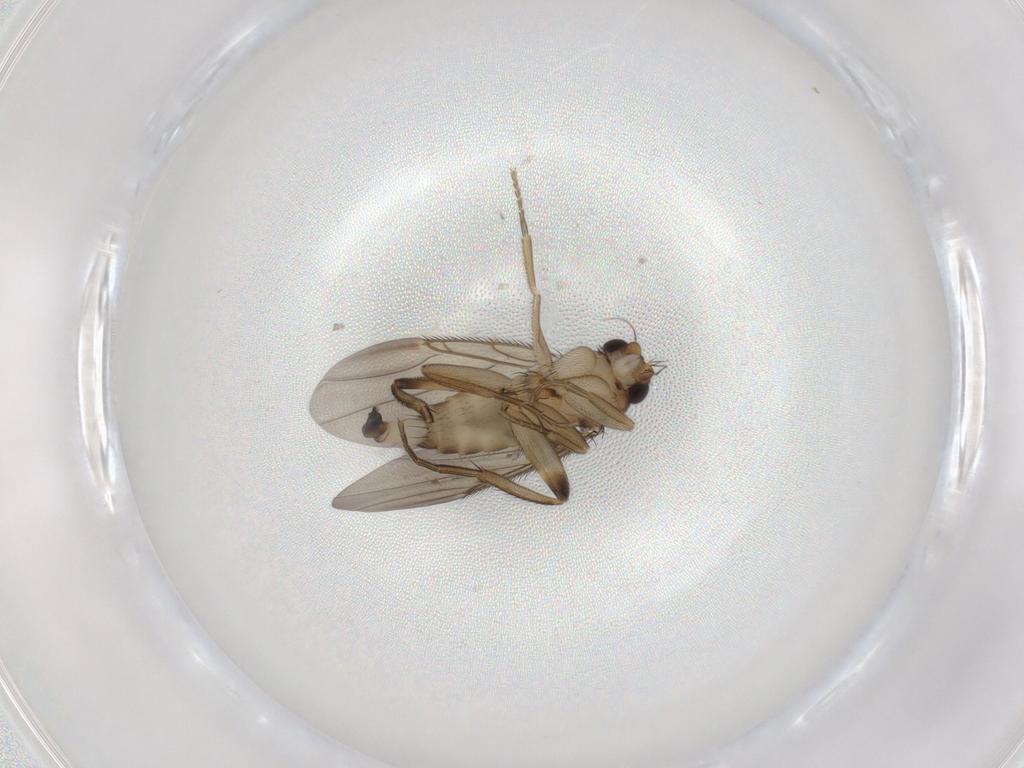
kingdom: Animalia
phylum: Arthropoda
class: Insecta
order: Diptera
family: Phoridae
